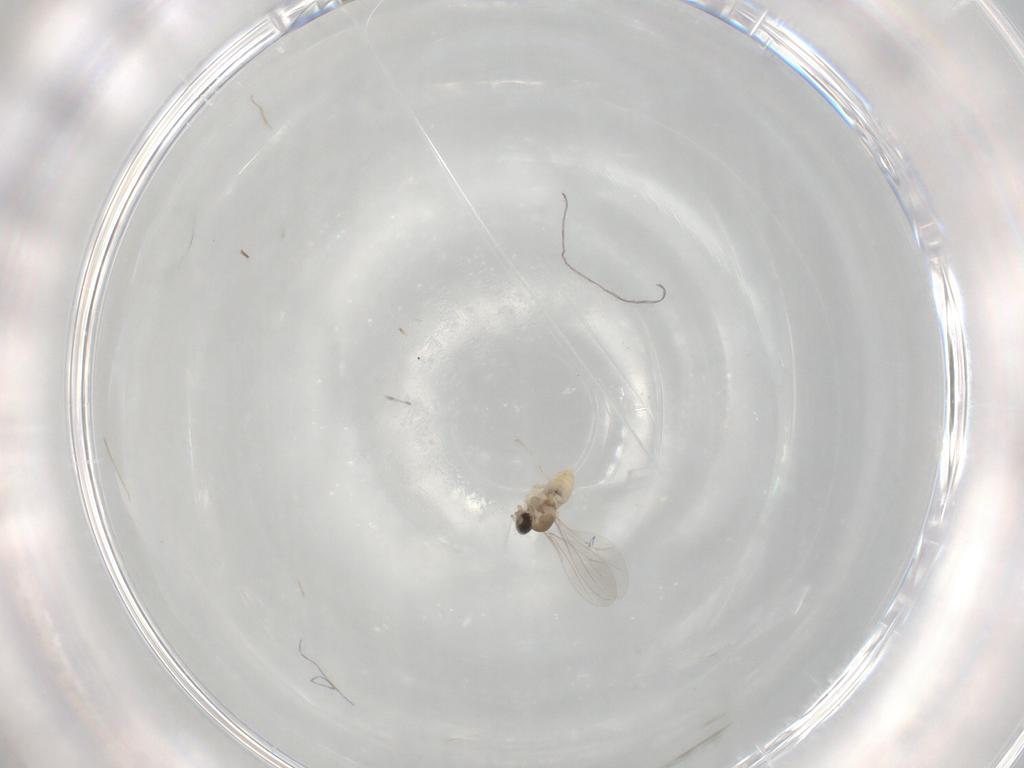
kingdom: Animalia
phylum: Arthropoda
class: Insecta
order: Diptera
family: Cecidomyiidae
